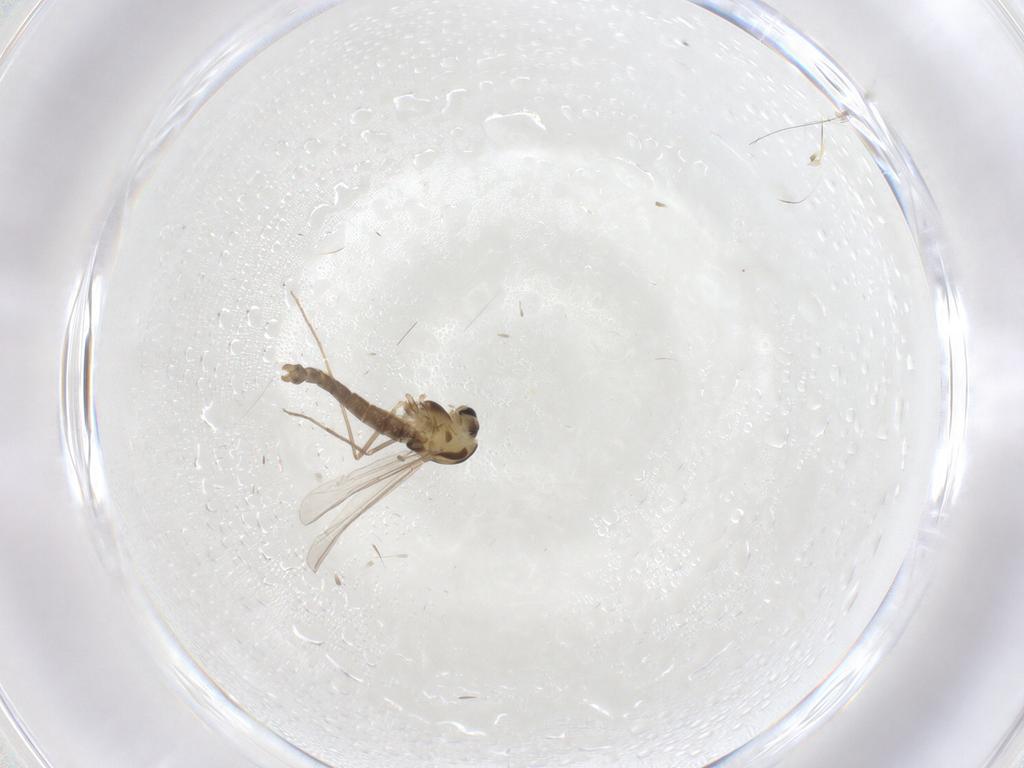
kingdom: Animalia
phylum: Arthropoda
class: Insecta
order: Diptera
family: Chironomidae
